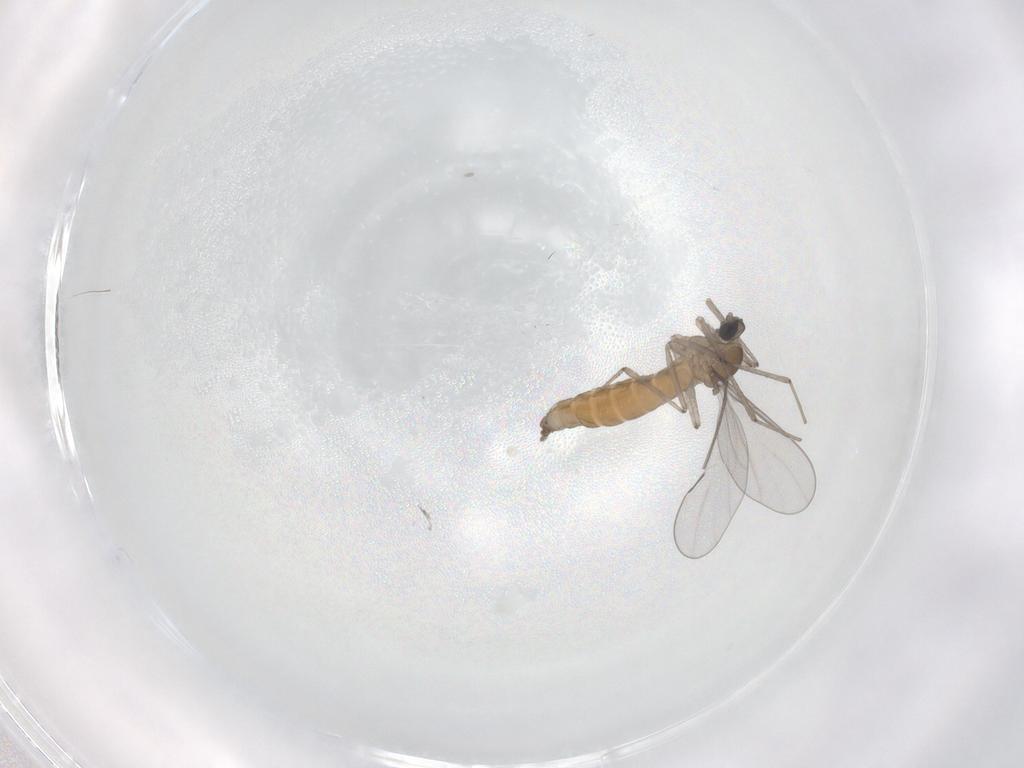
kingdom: Animalia
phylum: Arthropoda
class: Insecta
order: Diptera
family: Cecidomyiidae
